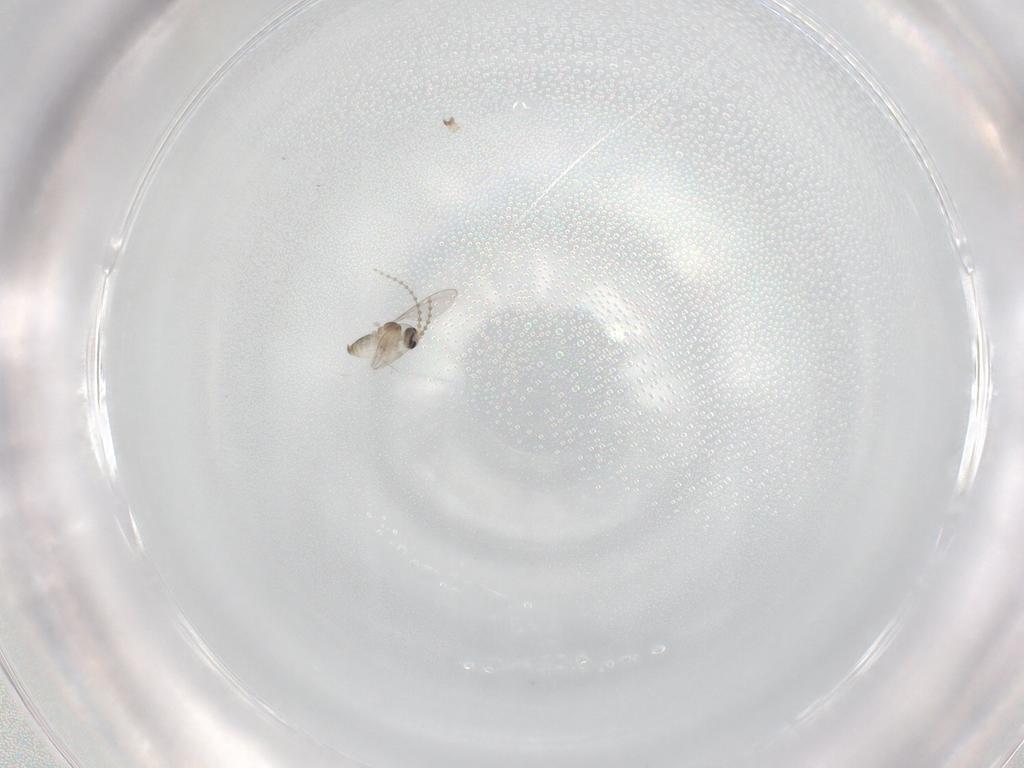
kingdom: Animalia
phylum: Arthropoda
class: Insecta
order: Diptera
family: Cecidomyiidae
